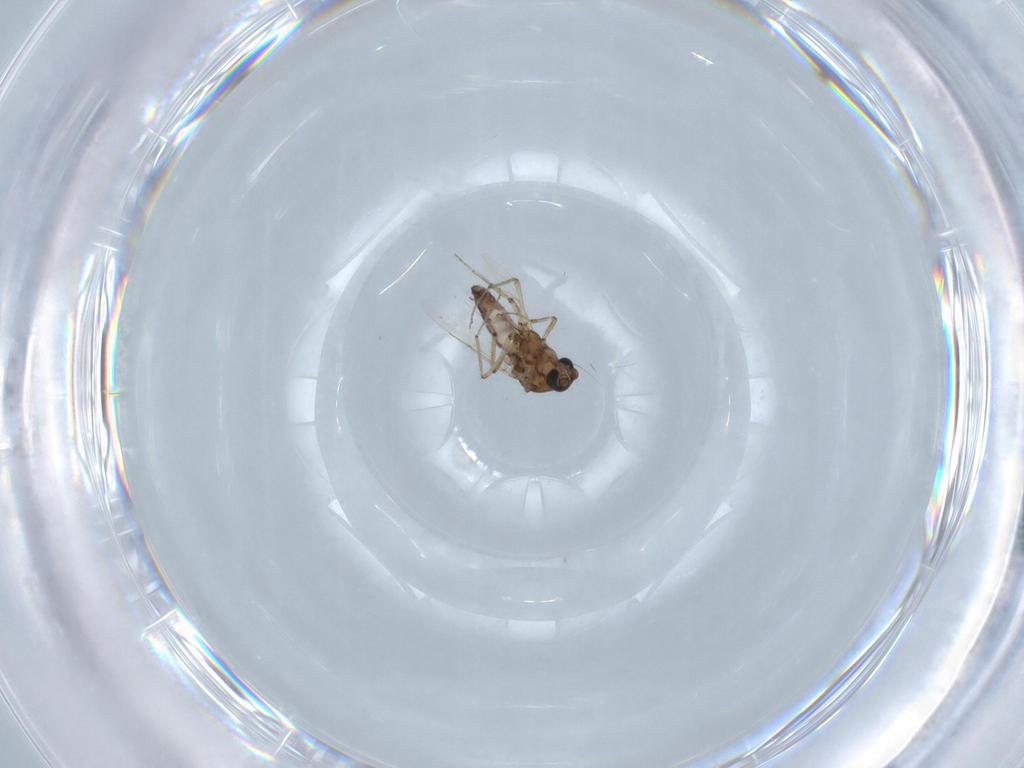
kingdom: Animalia
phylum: Arthropoda
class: Insecta
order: Diptera
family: Ceratopogonidae
